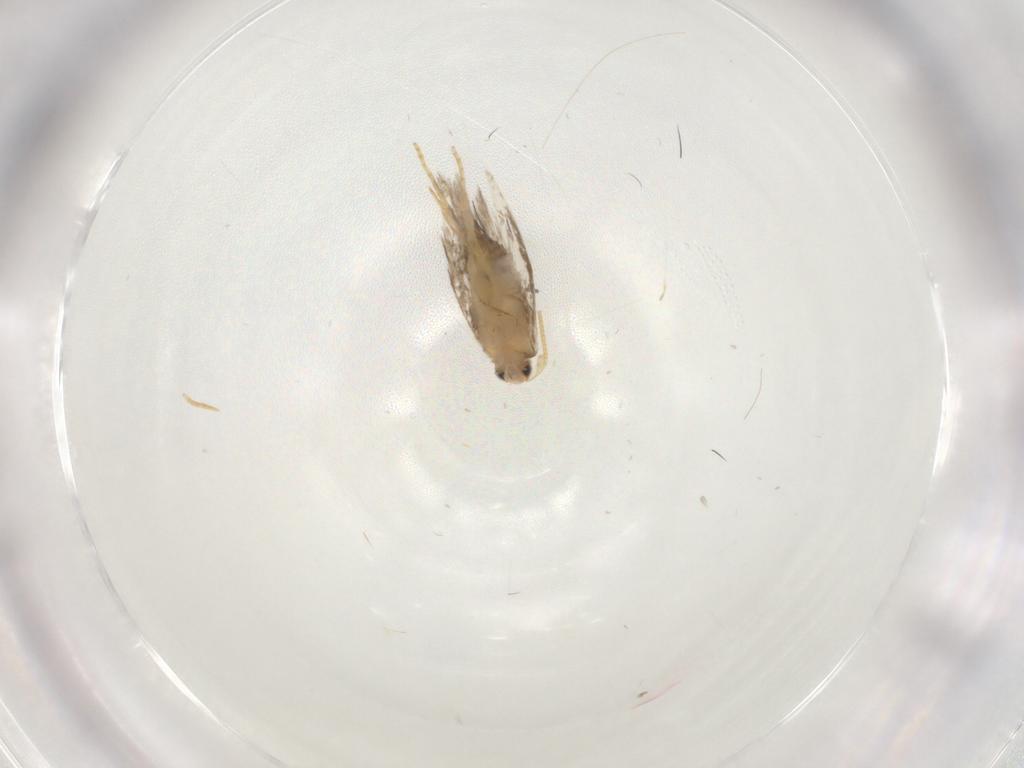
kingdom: Animalia
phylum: Arthropoda
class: Insecta
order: Lepidoptera
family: Nepticulidae
